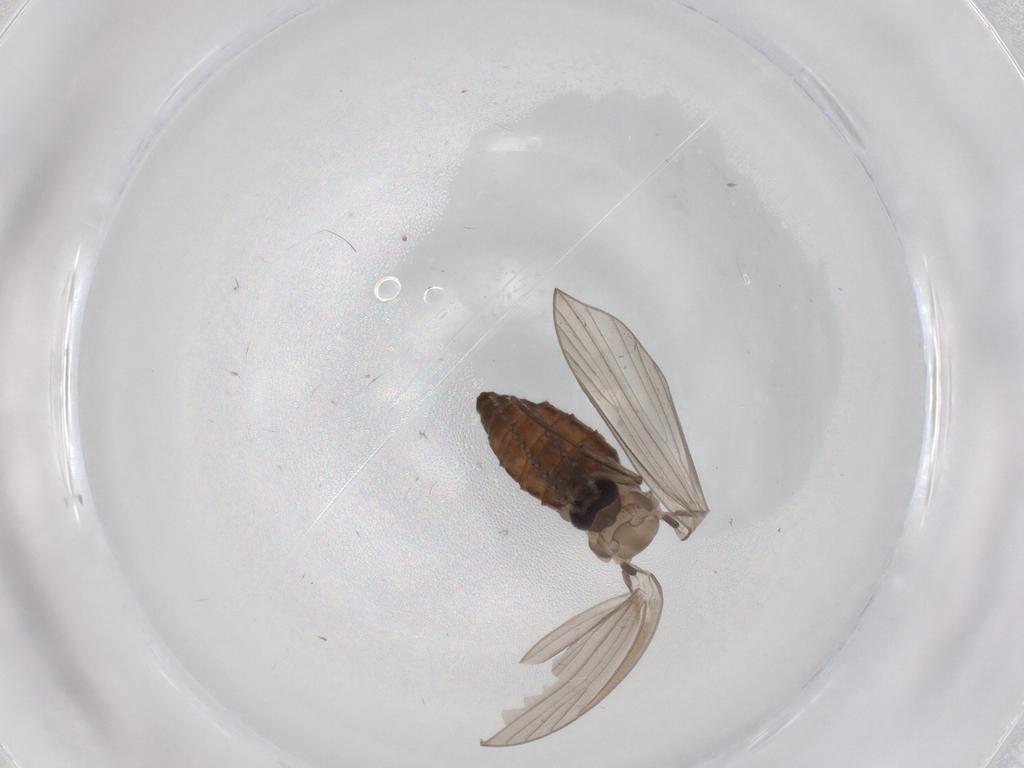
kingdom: Animalia
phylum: Arthropoda
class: Insecta
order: Diptera
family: Psychodidae
